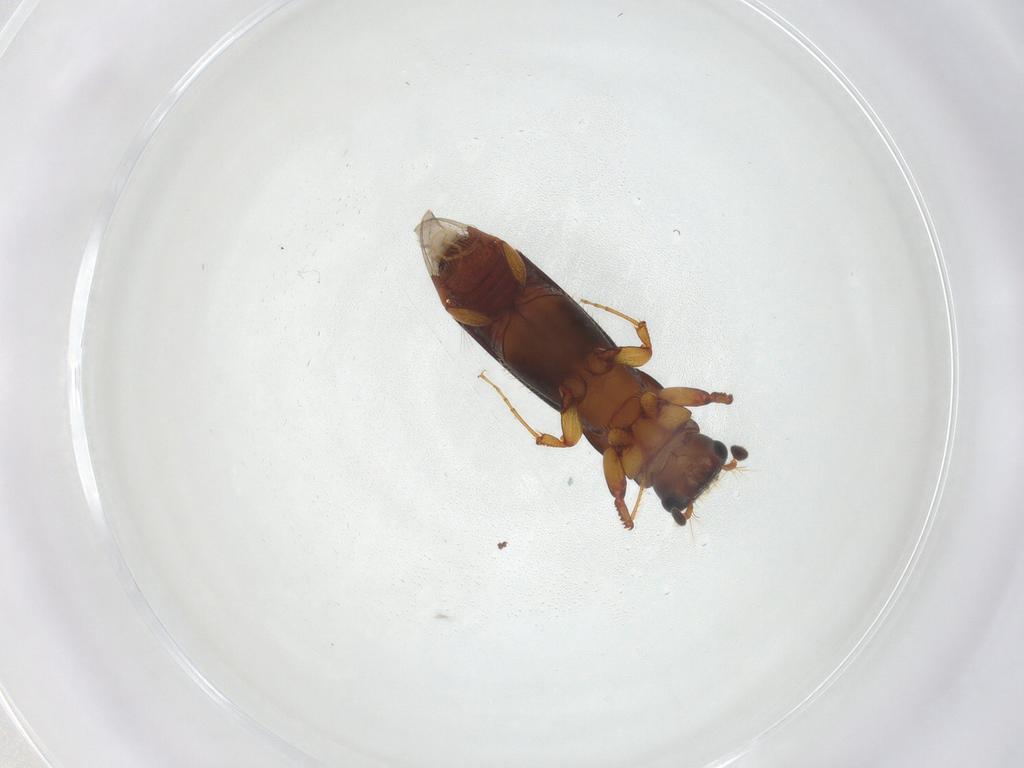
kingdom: Animalia
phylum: Arthropoda
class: Insecta
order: Coleoptera
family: Curculionidae
